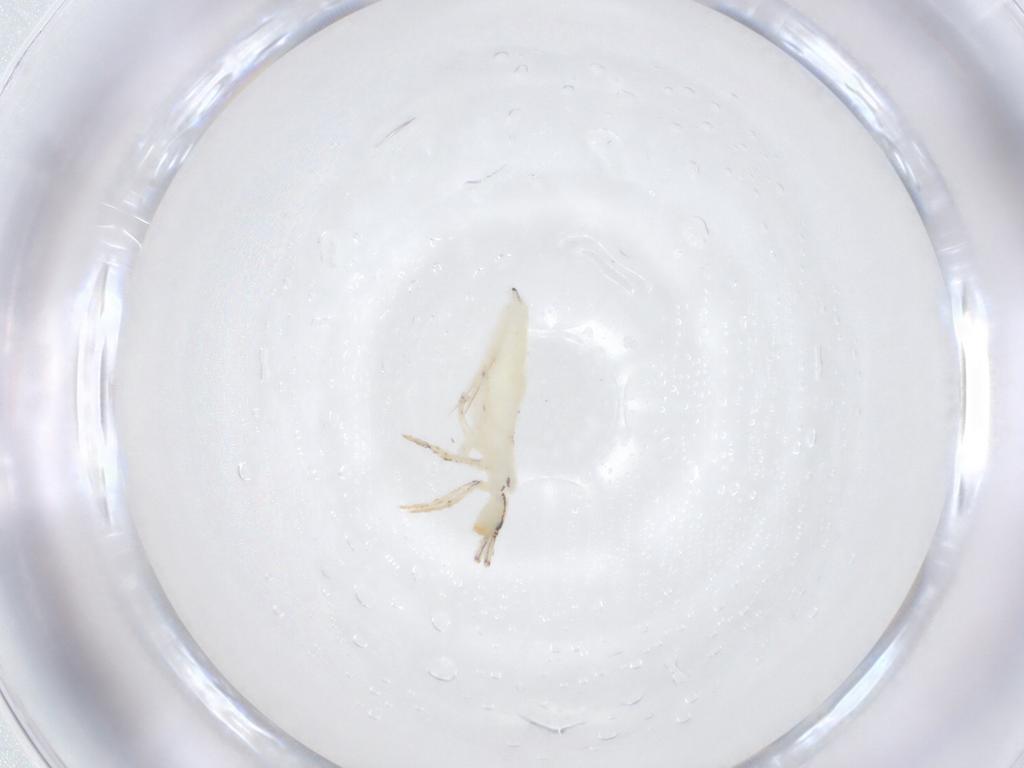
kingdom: Animalia
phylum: Arthropoda
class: Collembola
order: Entomobryomorpha
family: Entomobryidae
